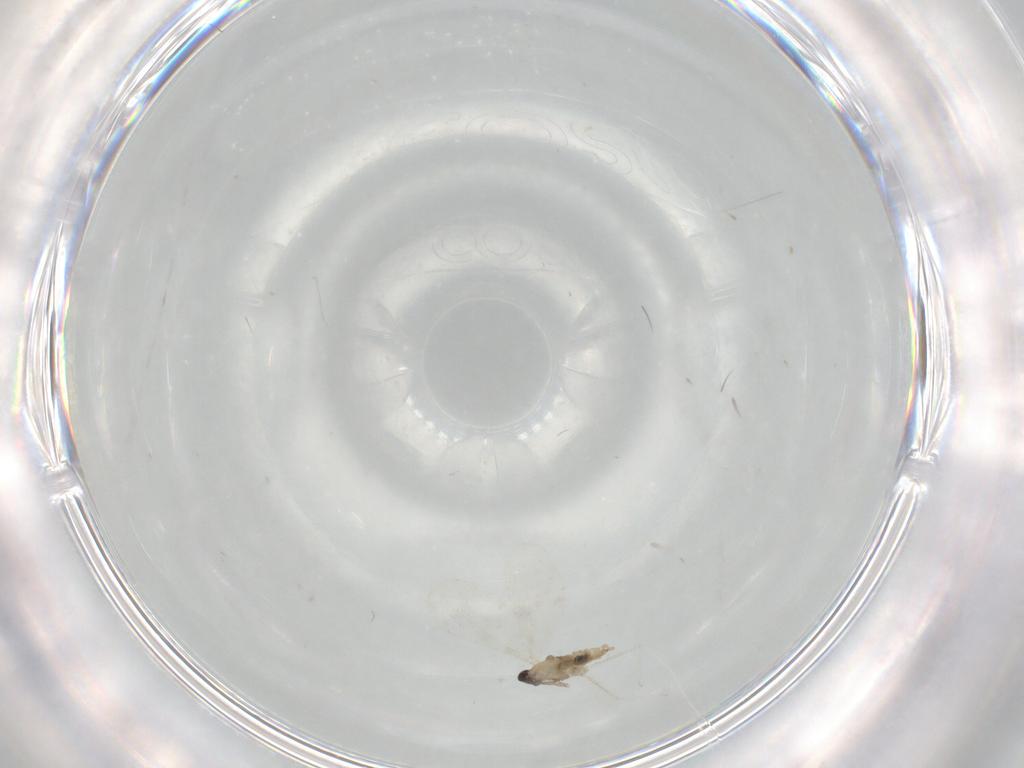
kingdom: Animalia
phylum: Arthropoda
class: Insecta
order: Diptera
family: Cecidomyiidae
